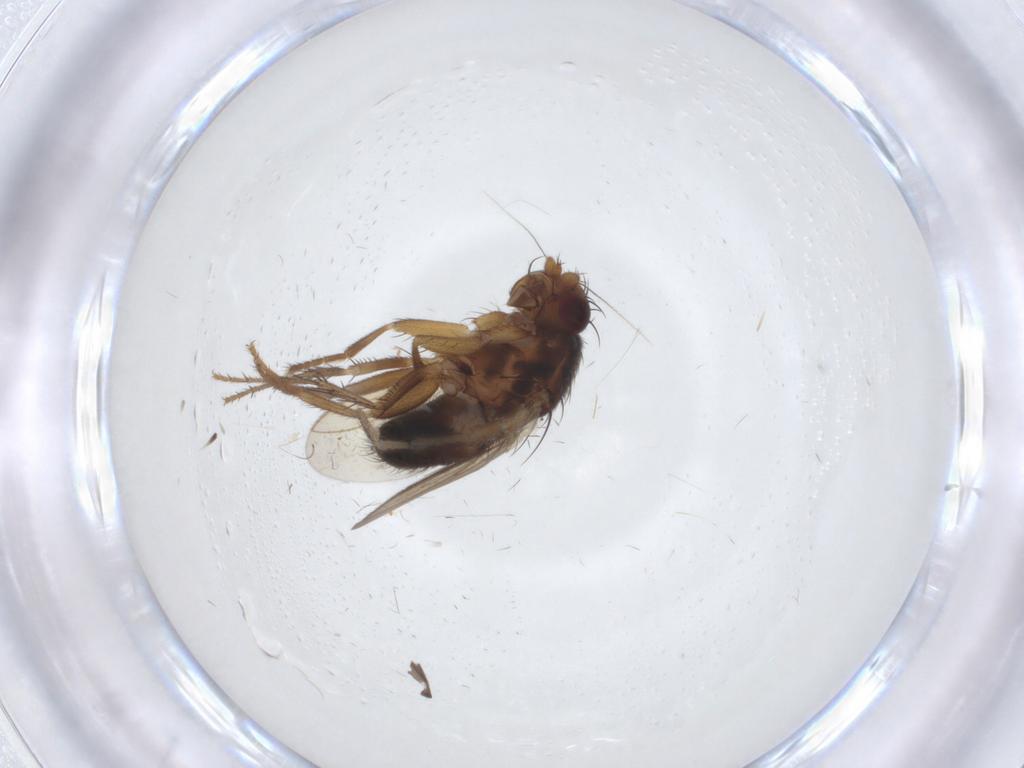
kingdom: Animalia
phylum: Arthropoda
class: Insecta
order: Diptera
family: Sphaeroceridae
